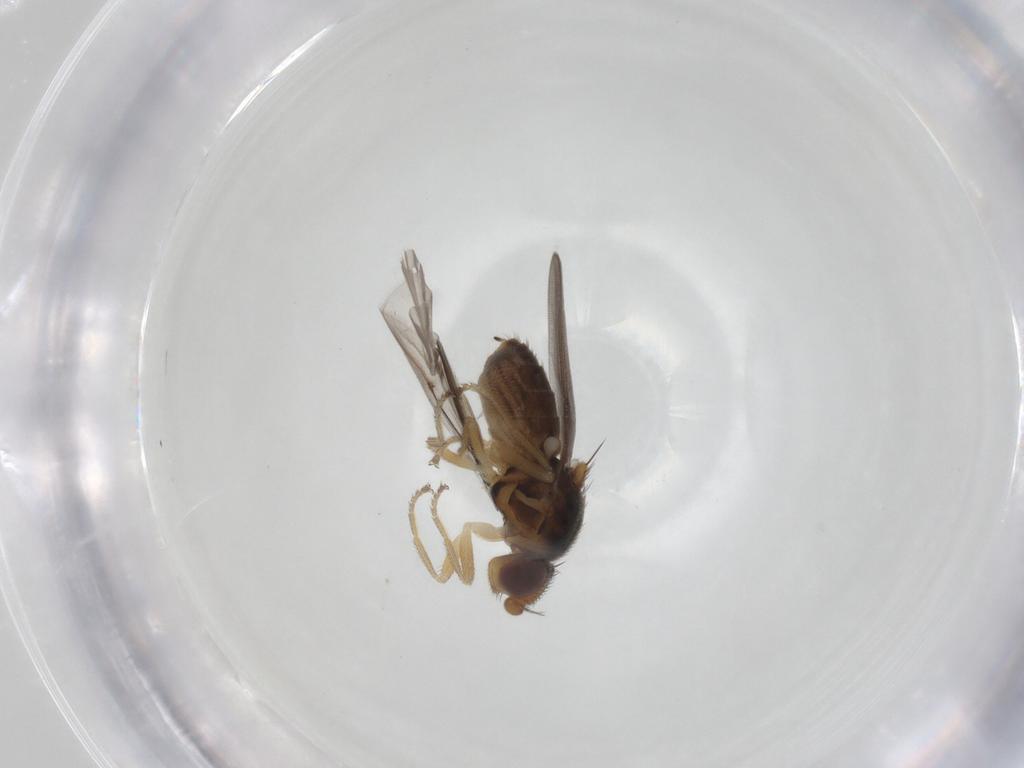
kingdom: Animalia
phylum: Arthropoda
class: Insecta
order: Diptera
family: Chloropidae
